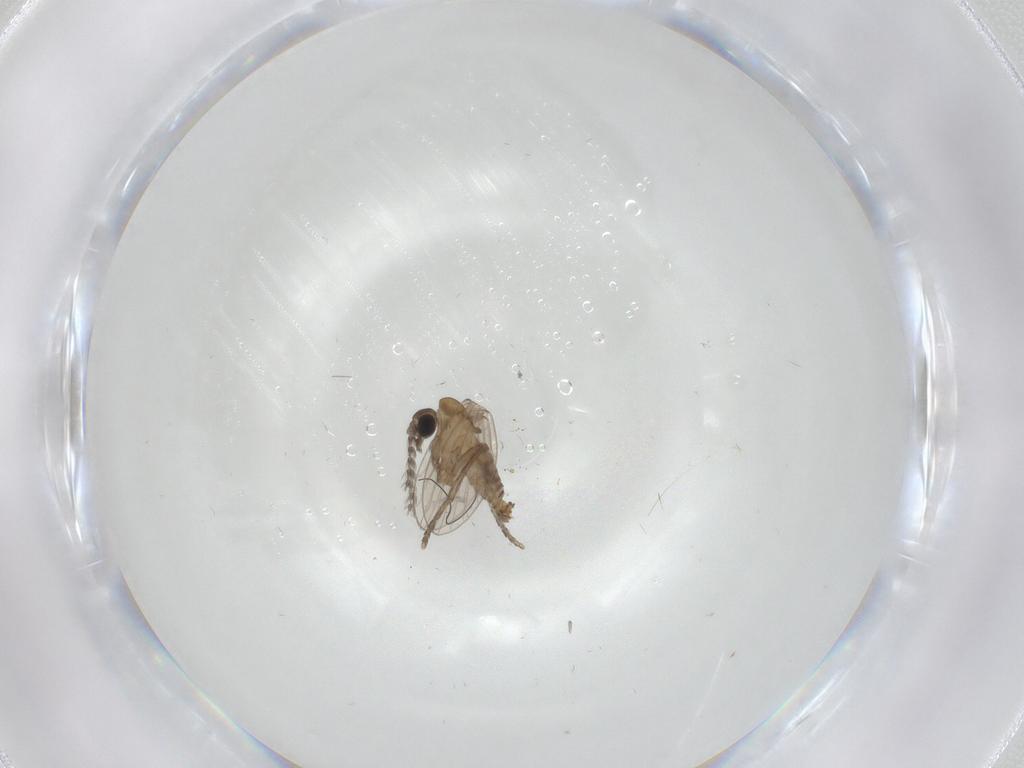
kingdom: Animalia
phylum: Arthropoda
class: Insecta
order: Diptera
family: Psychodidae
